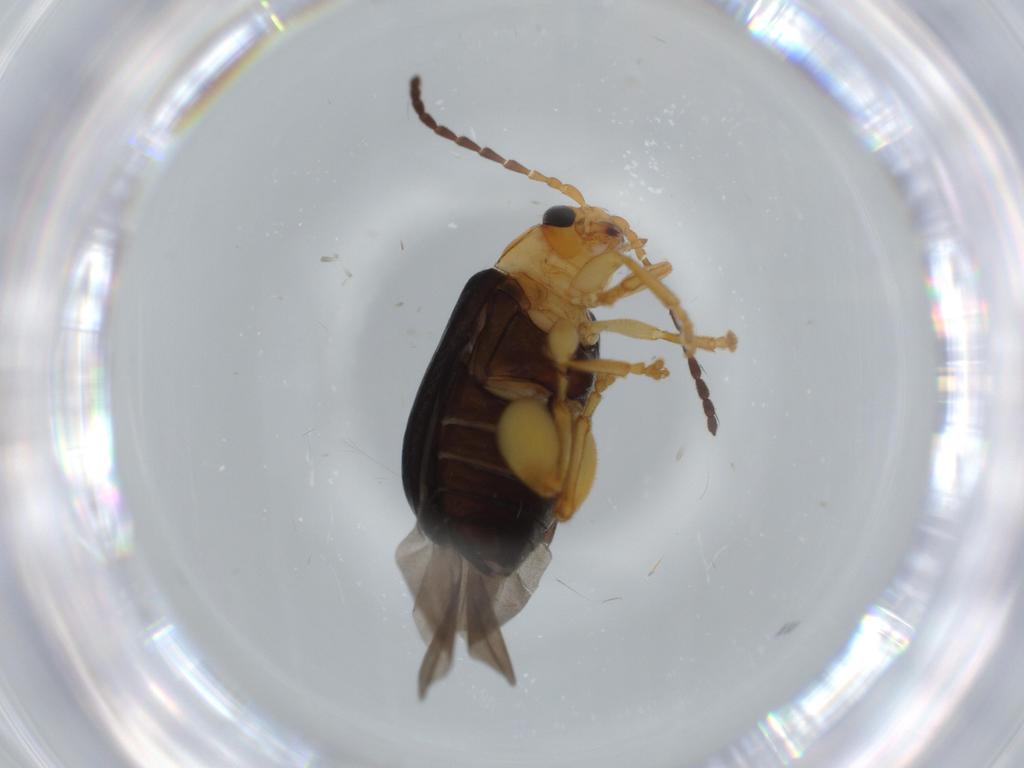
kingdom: Animalia
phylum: Arthropoda
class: Insecta
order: Coleoptera
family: Chrysomelidae
